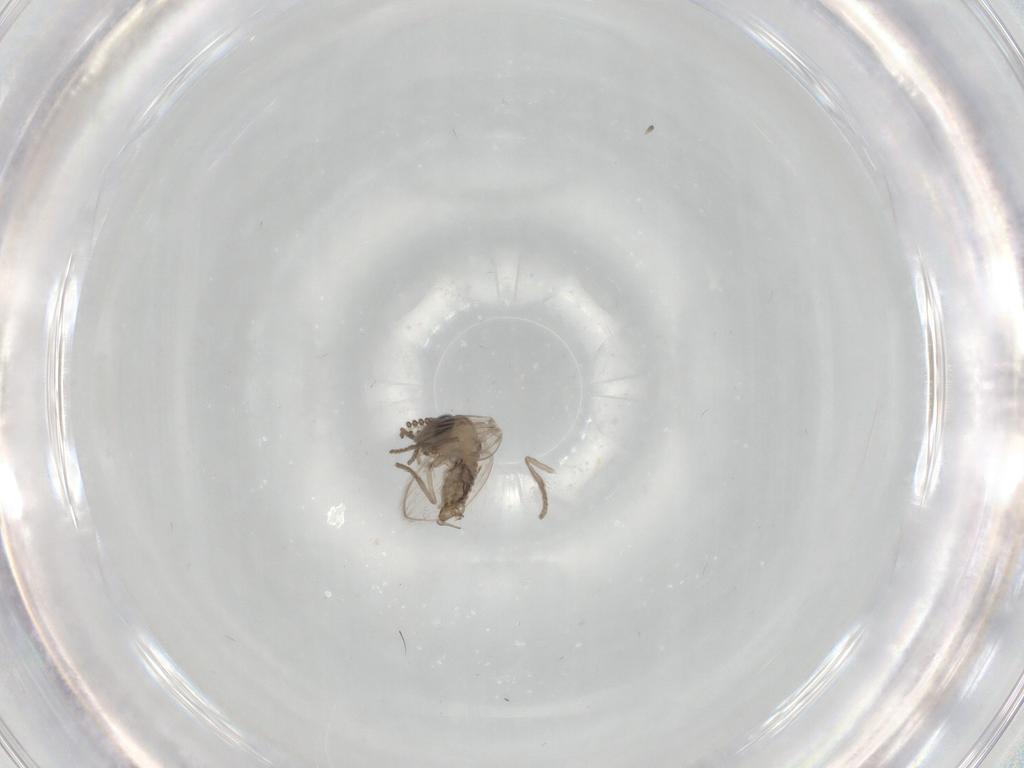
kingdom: Animalia
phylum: Arthropoda
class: Insecta
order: Diptera
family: Psychodidae
